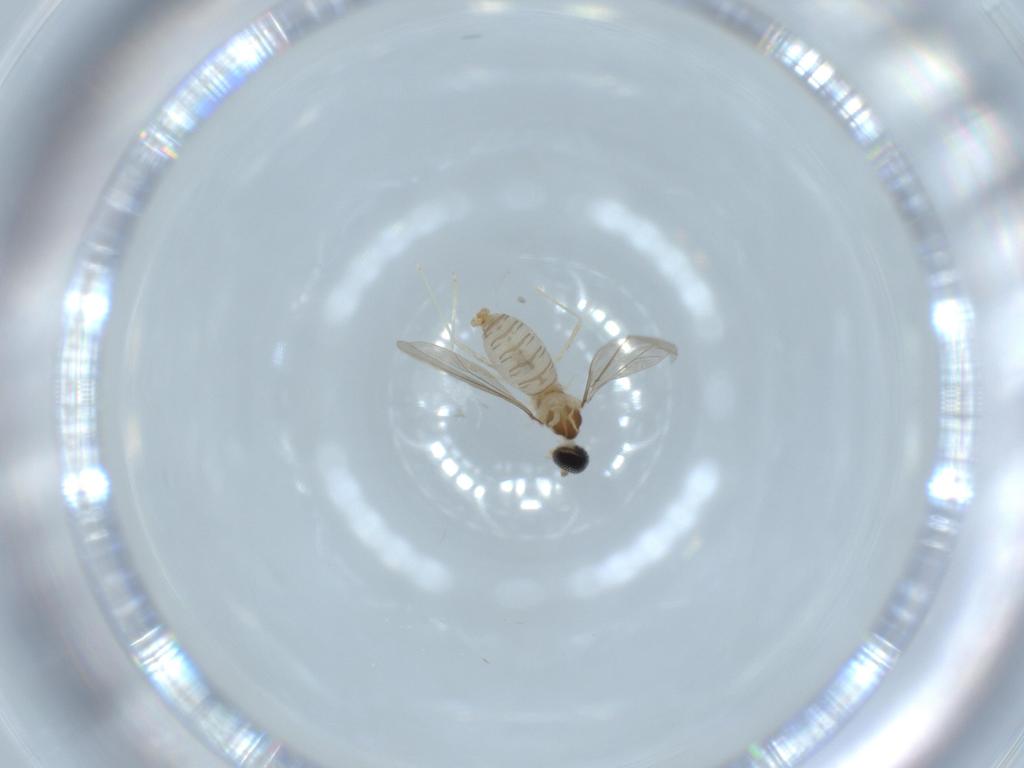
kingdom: Animalia
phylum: Arthropoda
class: Insecta
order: Diptera
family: Cecidomyiidae
